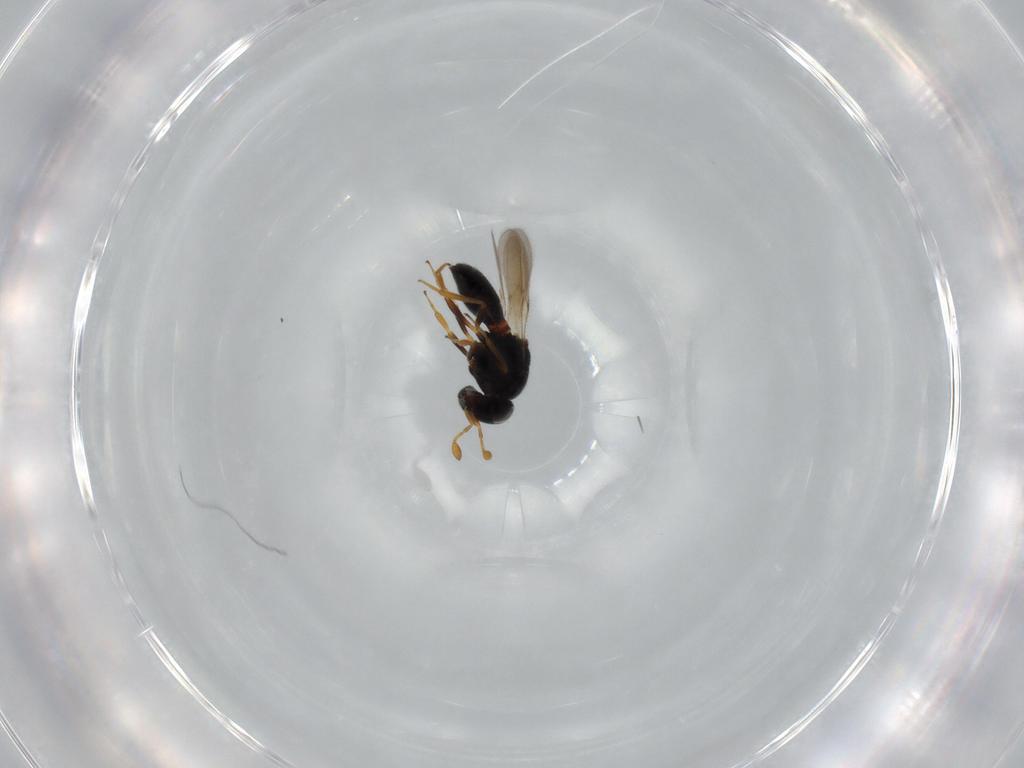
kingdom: Animalia
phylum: Arthropoda
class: Insecta
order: Hymenoptera
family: Scelionidae
